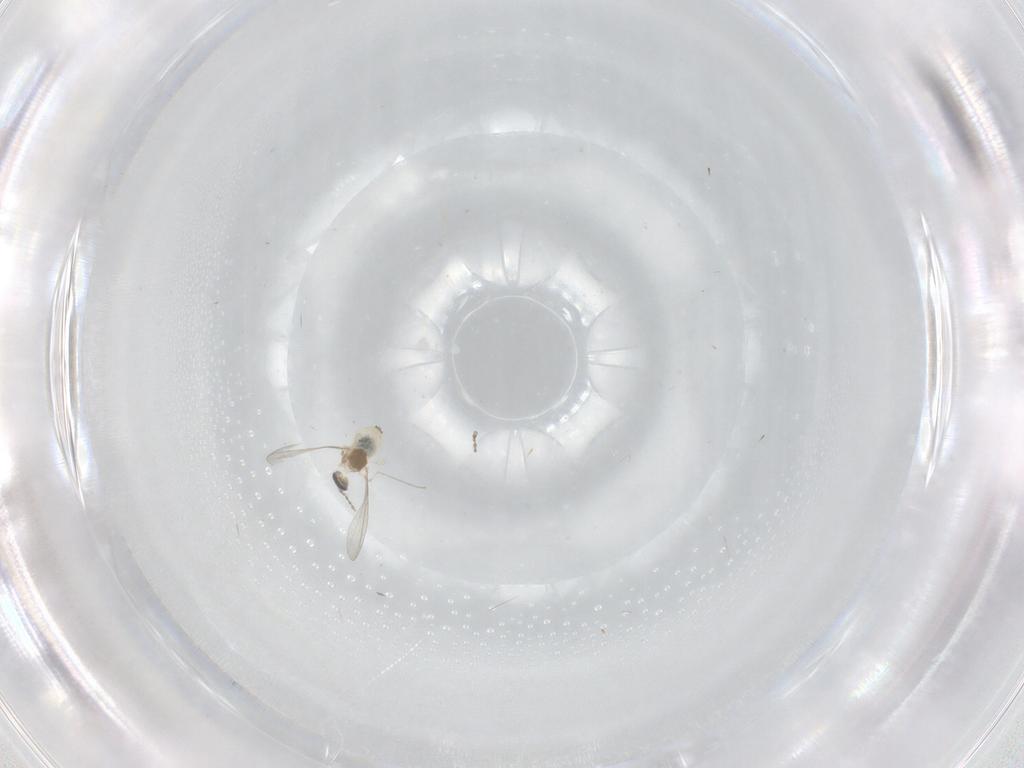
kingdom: Animalia
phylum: Arthropoda
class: Insecta
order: Diptera
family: Cecidomyiidae
